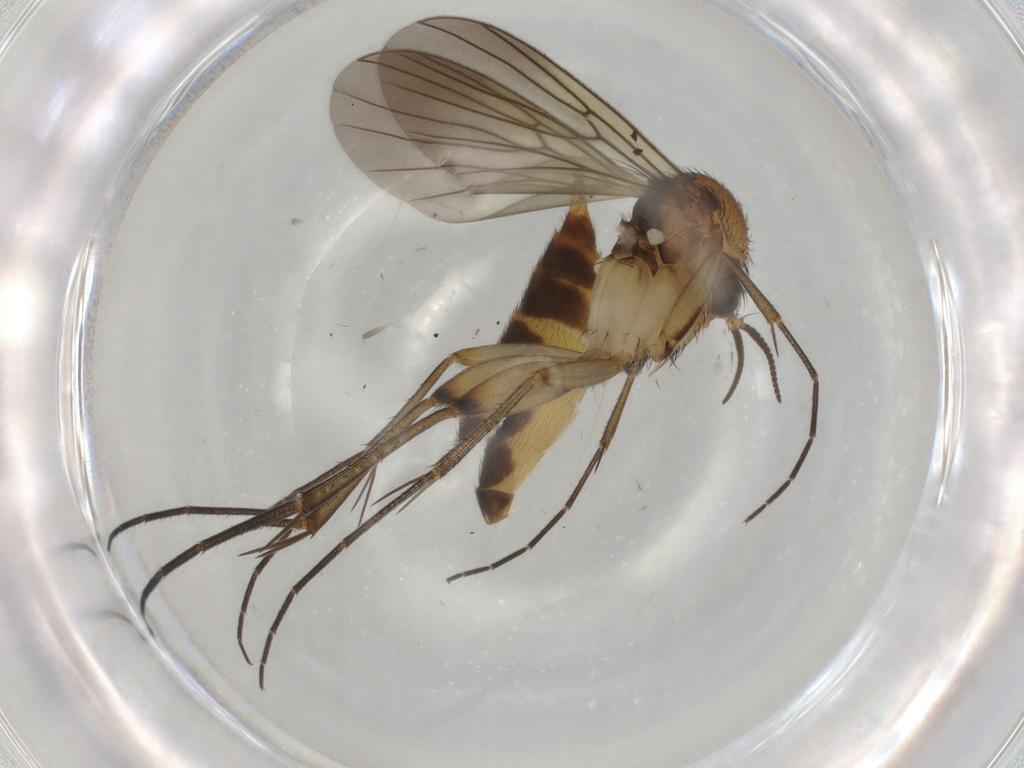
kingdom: Animalia
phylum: Arthropoda
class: Insecta
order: Diptera
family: Mycetophilidae
